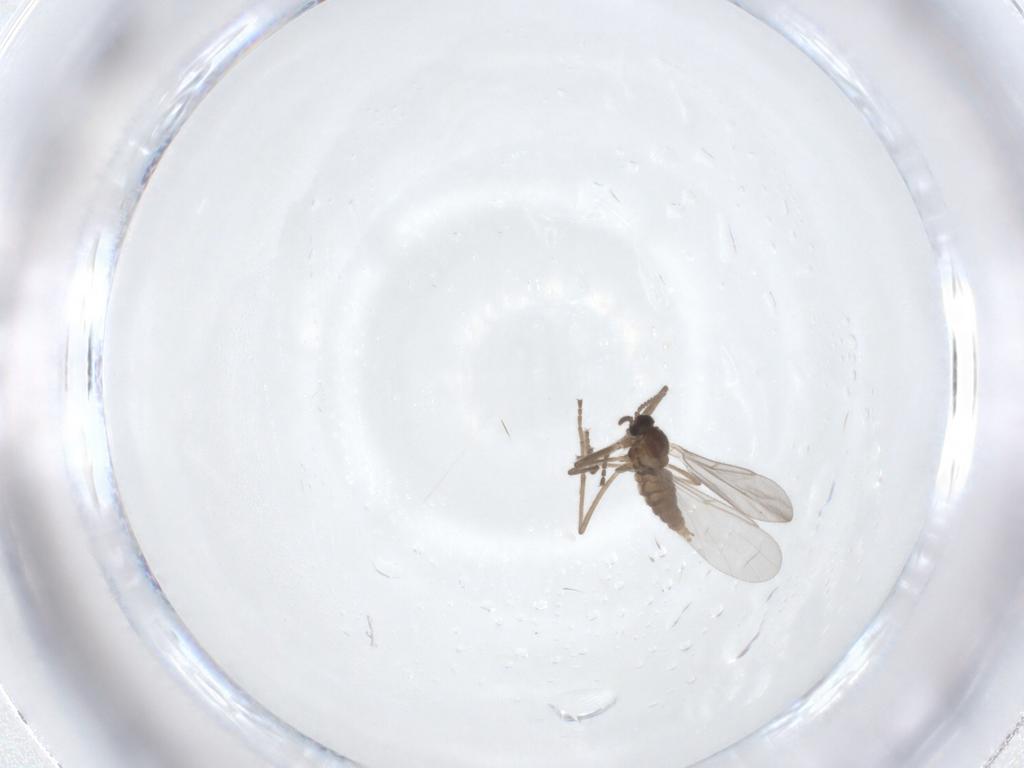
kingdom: Animalia
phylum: Arthropoda
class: Insecta
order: Diptera
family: Cecidomyiidae
